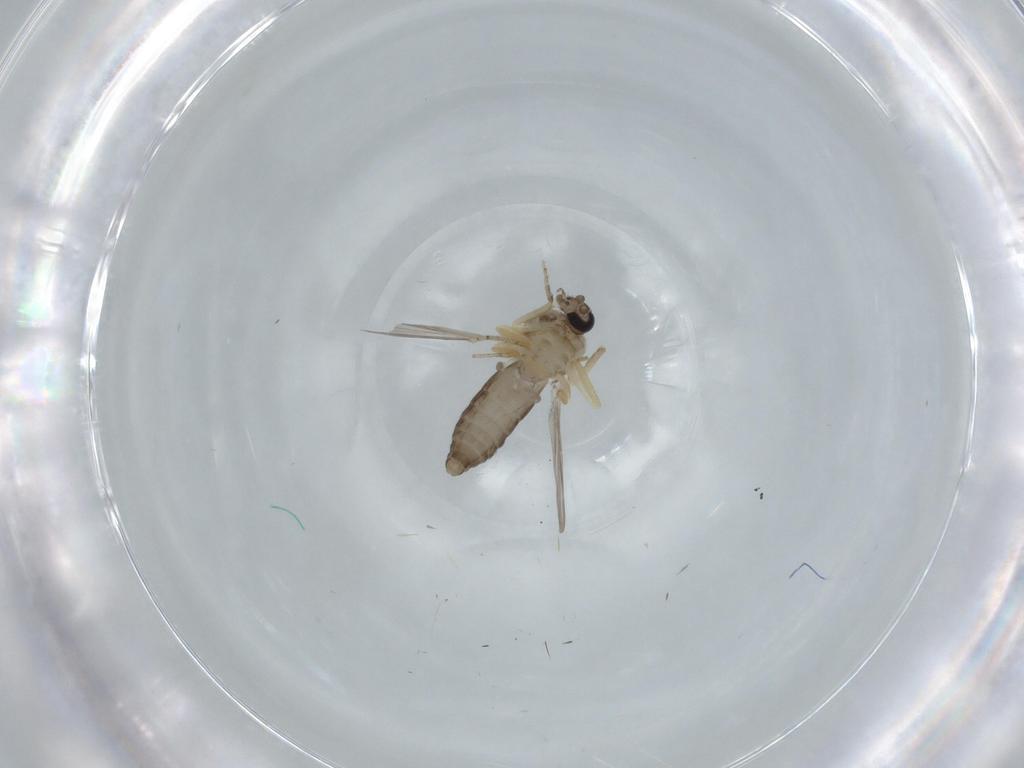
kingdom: Animalia
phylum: Arthropoda
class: Insecta
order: Diptera
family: Ceratopogonidae
